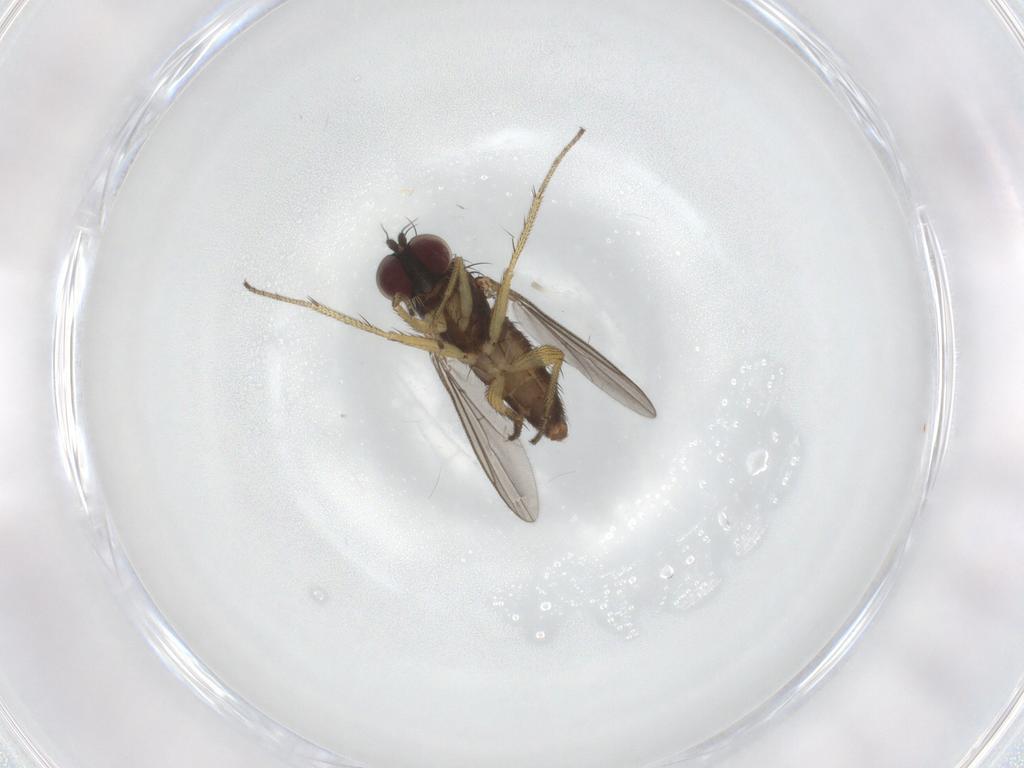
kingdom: Animalia
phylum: Arthropoda
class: Insecta
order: Diptera
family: Dolichopodidae
